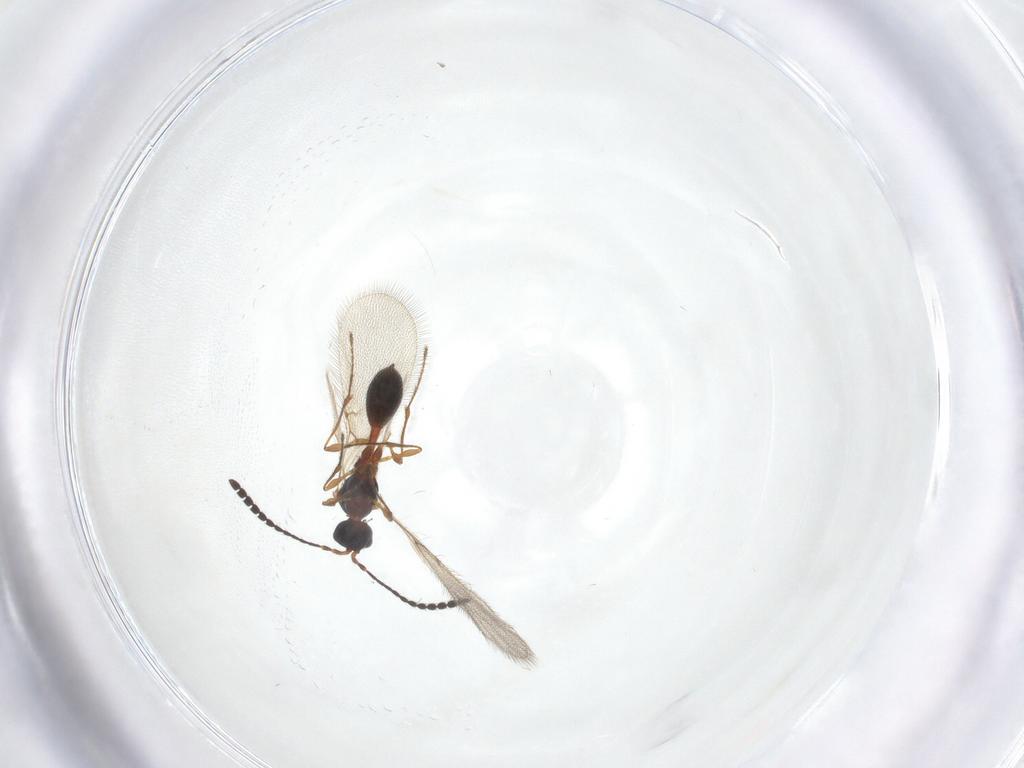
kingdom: Animalia
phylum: Arthropoda
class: Insecta
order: Hymenoptera
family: Diapriidae
